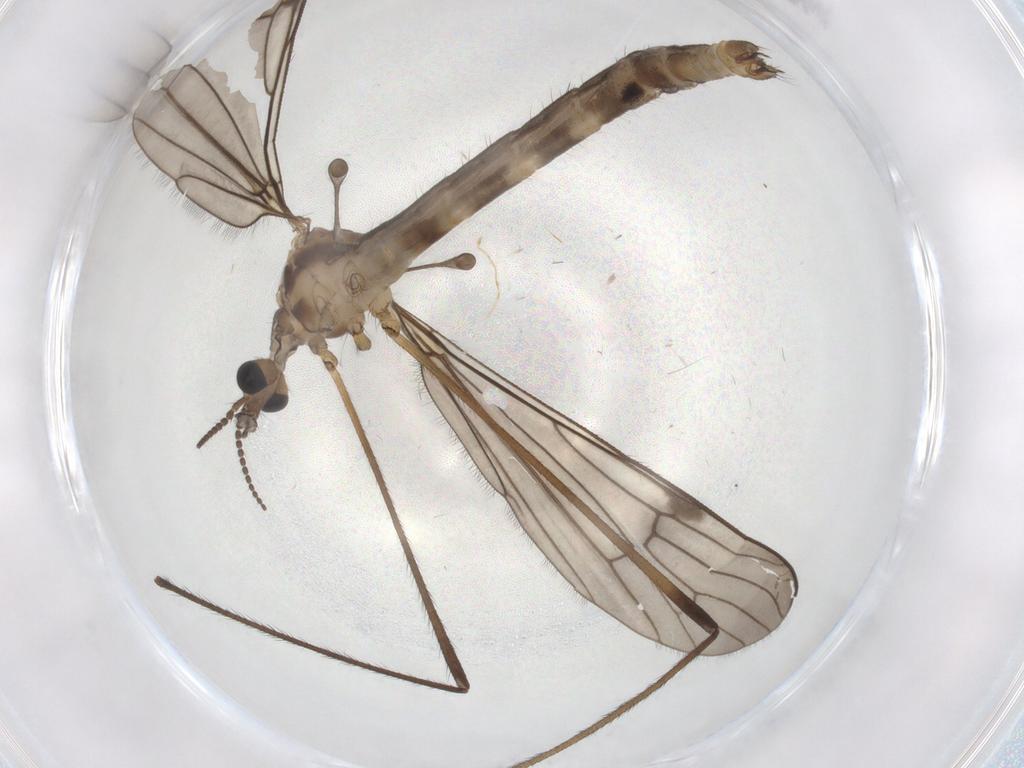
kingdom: Animalia
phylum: Arthropoda
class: Insecta
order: Diptera
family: Limoniidae
